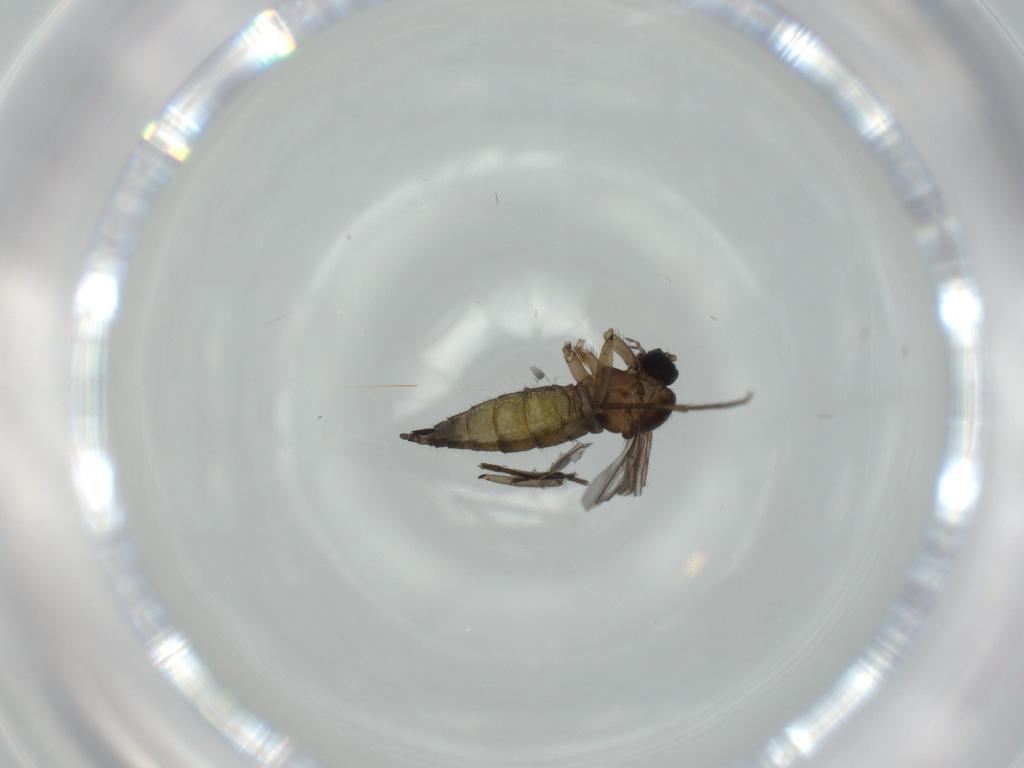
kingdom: Animalia
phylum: Arthropoda
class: Insecta
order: Diptera
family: Sciaridae
